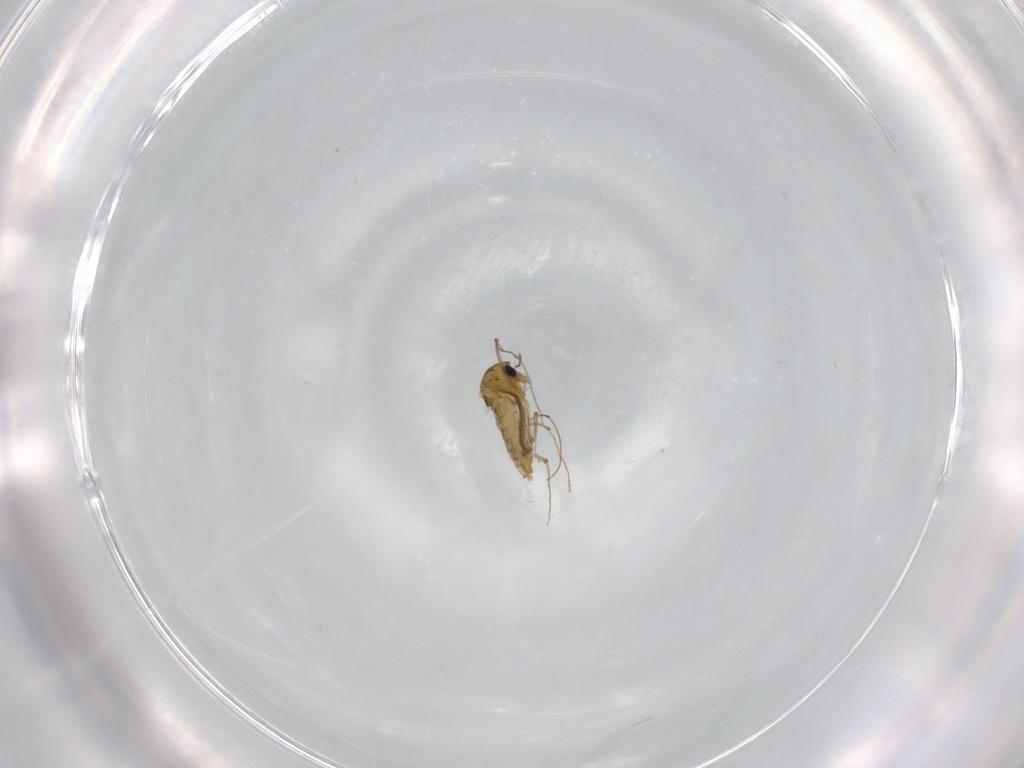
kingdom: Animalia
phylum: Arthropoda
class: Insecta
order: Diptera
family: Chironomidae
